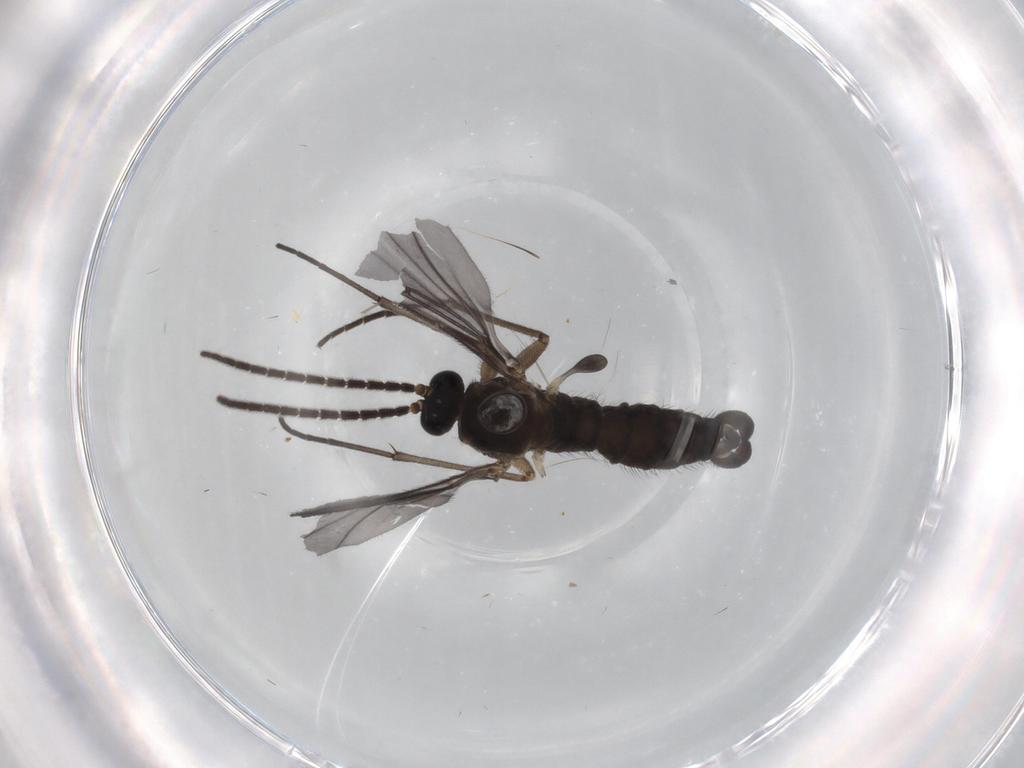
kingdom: Animalia
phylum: Arthropoda
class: Insecta
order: Diptera
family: Sciaridae
